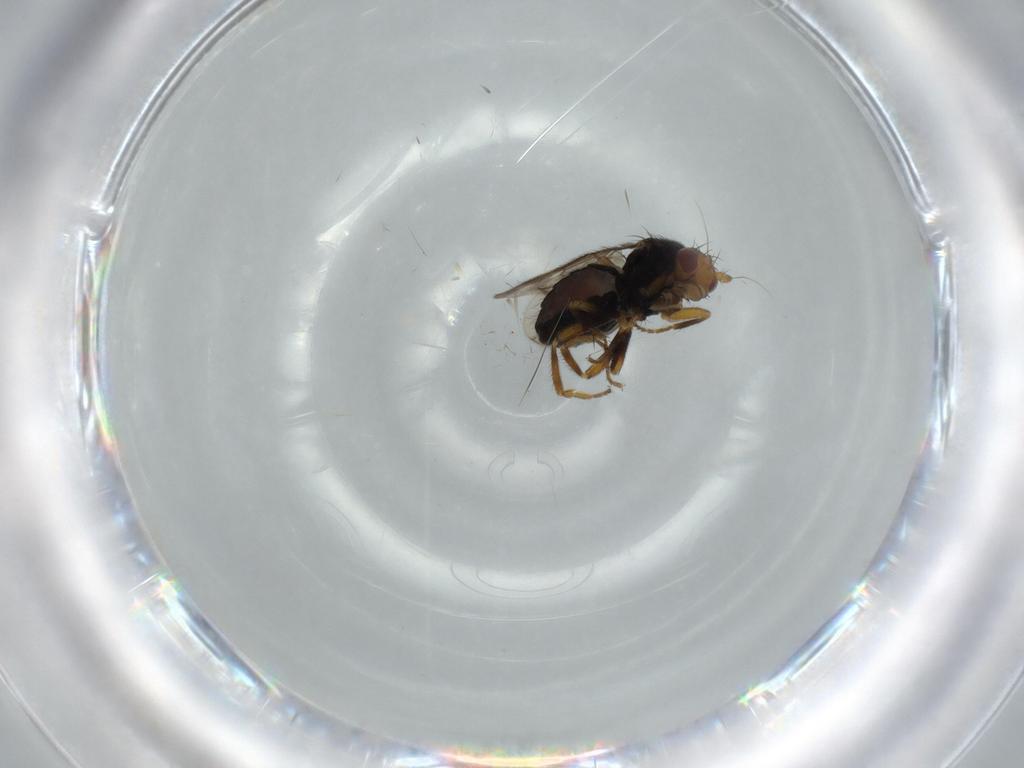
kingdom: Animalia
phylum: Arthropoda
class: Insecta
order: Diptera
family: Sphaeroceridae
